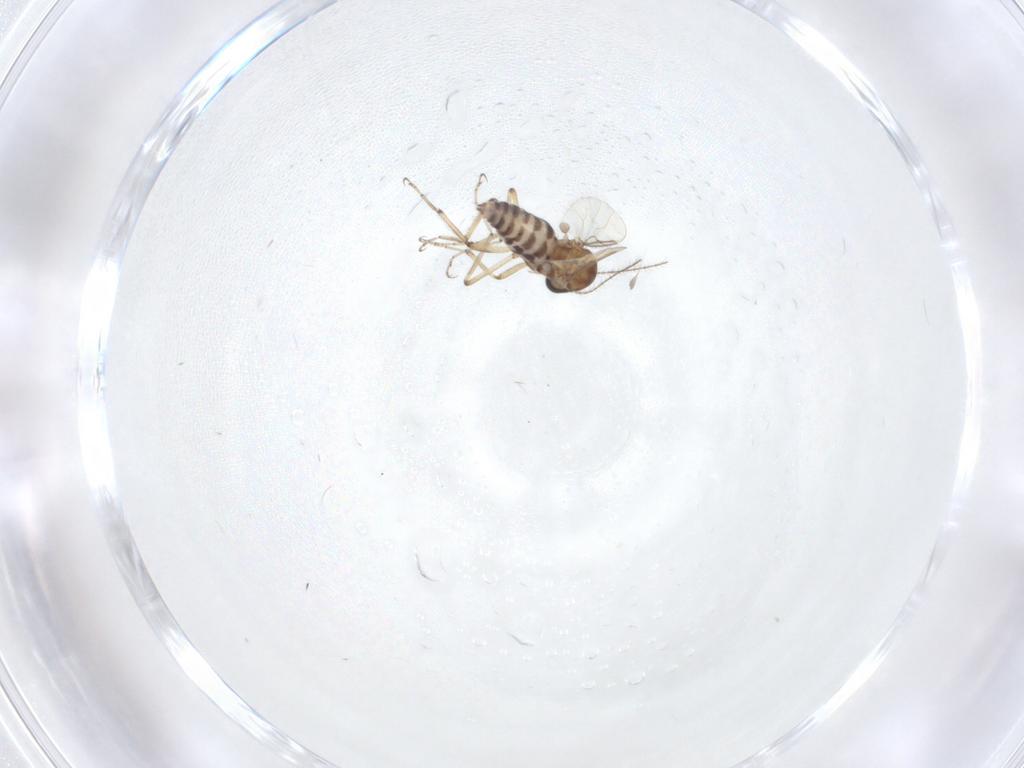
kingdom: Animalia
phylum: Arthropoda
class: Insecta
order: Diptera
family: Ceratopogonidae
